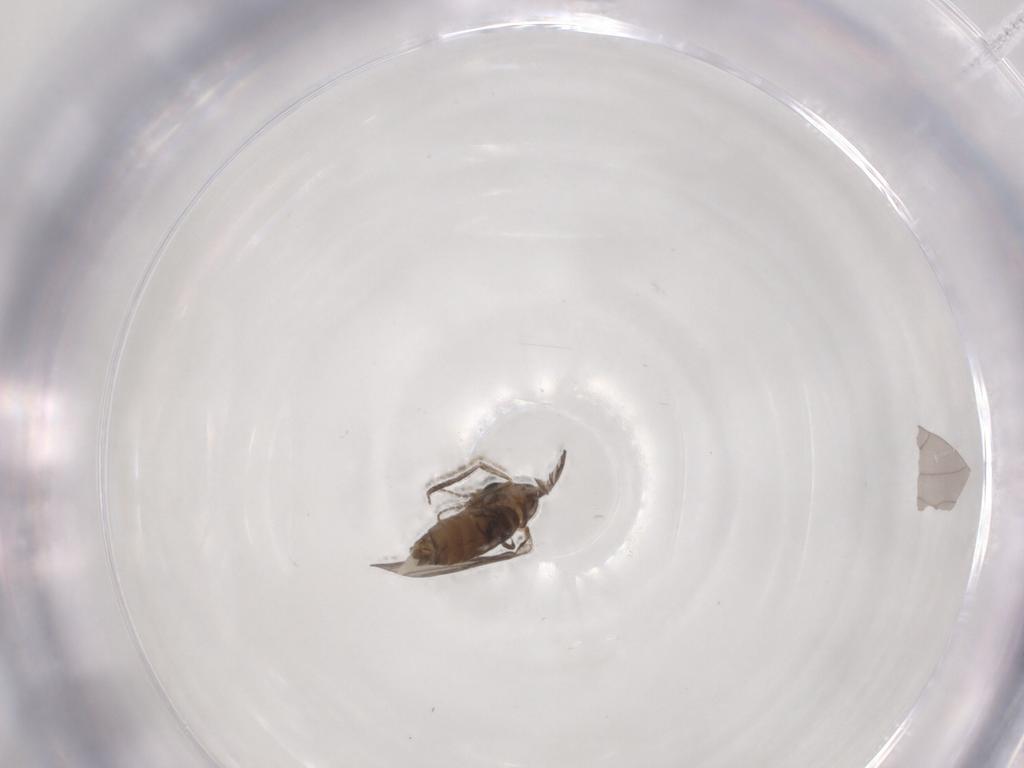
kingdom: Animalia
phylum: Arthropoda
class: Insecta
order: Diptera
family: Psychodidae
